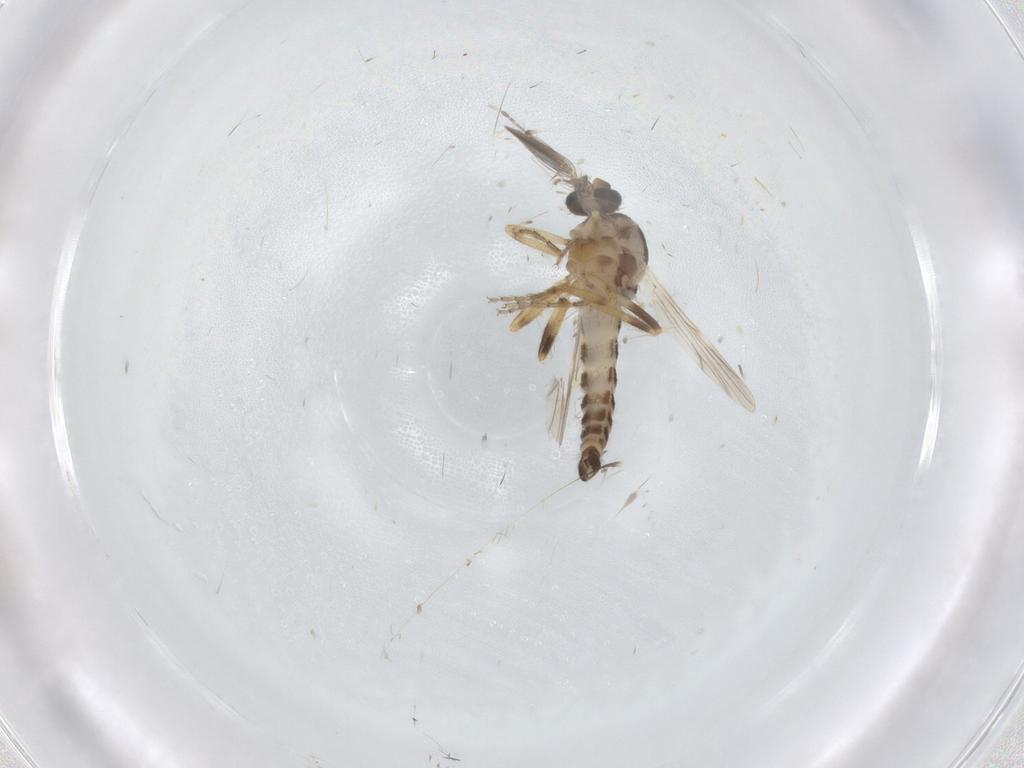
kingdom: Animalia
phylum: Arthropoda
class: Insecta
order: Diptera
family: Ceratopogonidae
